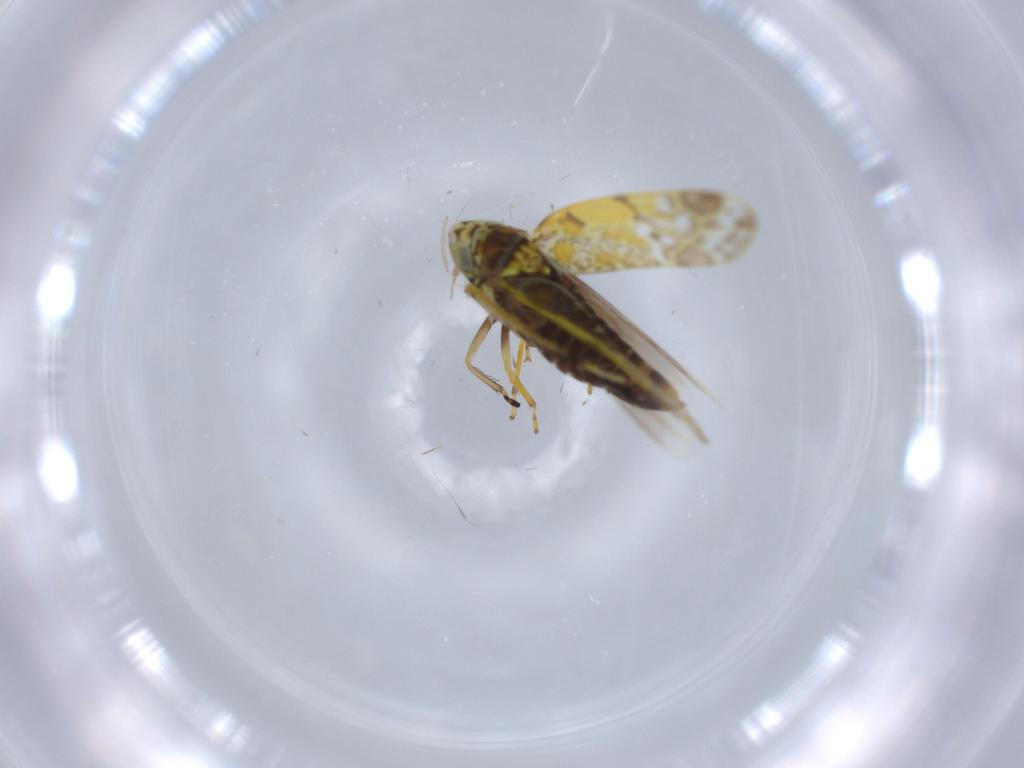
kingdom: Animalia
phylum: Arthropoda
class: Insecta
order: Hemiptera
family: Cicadellidae
